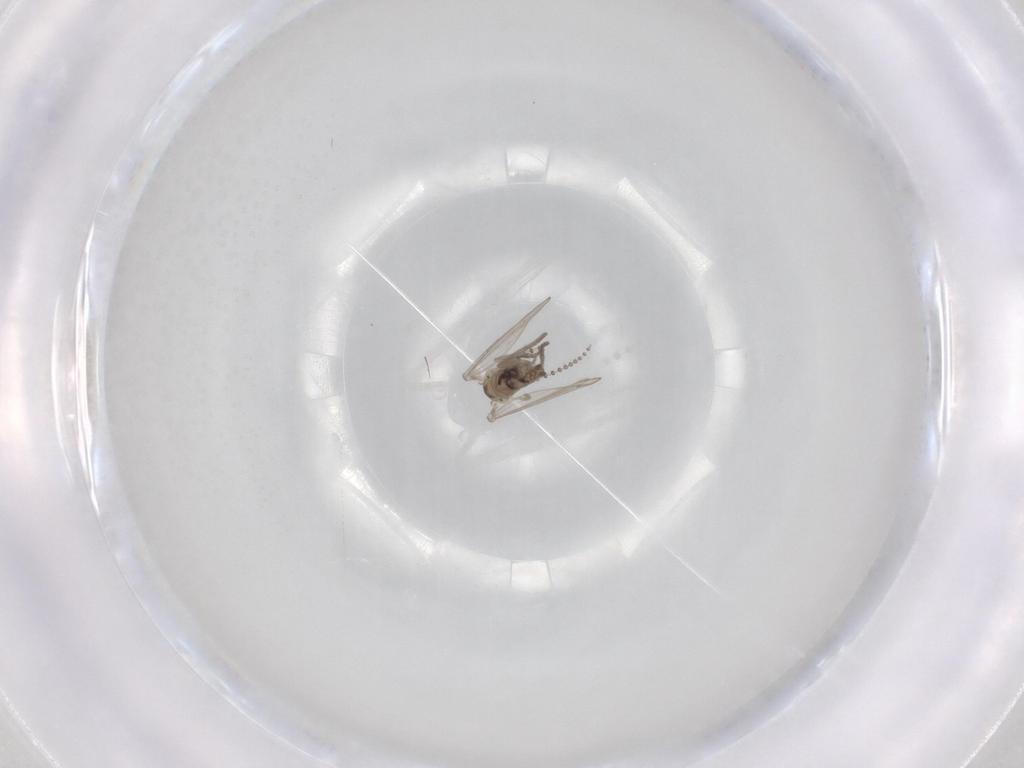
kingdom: Animalia
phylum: Arthropoda
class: Insecta
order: Diptera
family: Psychodidae
